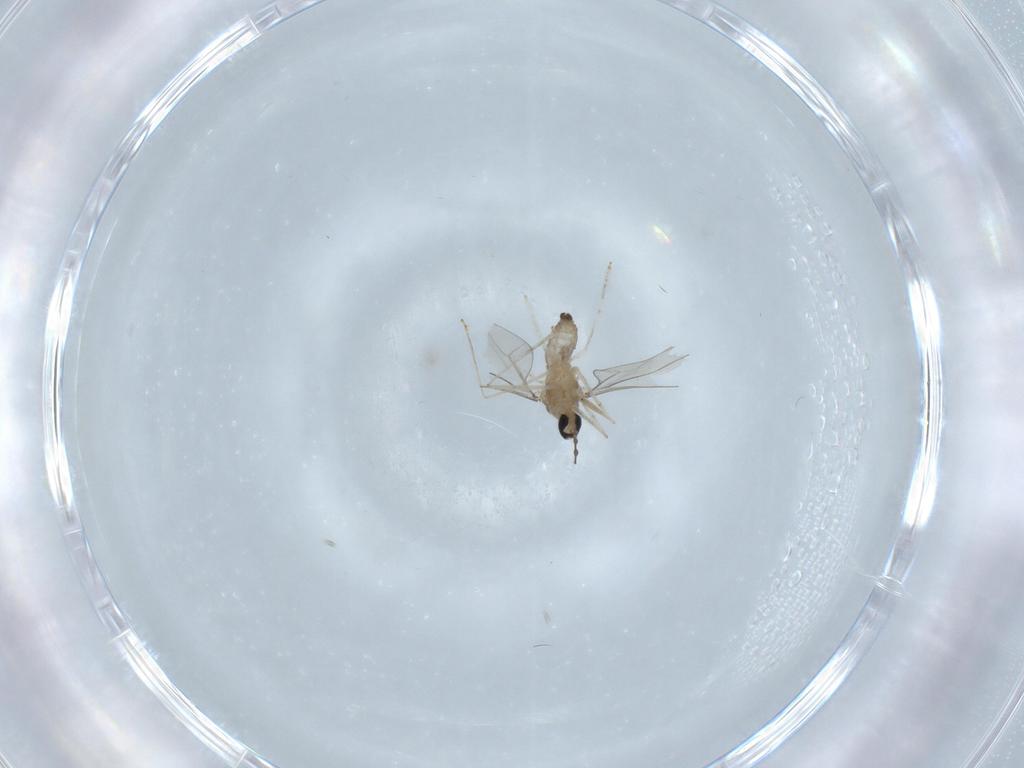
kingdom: Animalia
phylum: Arthropoda
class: Insecta
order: Diptera
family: Cecidomyiidae
